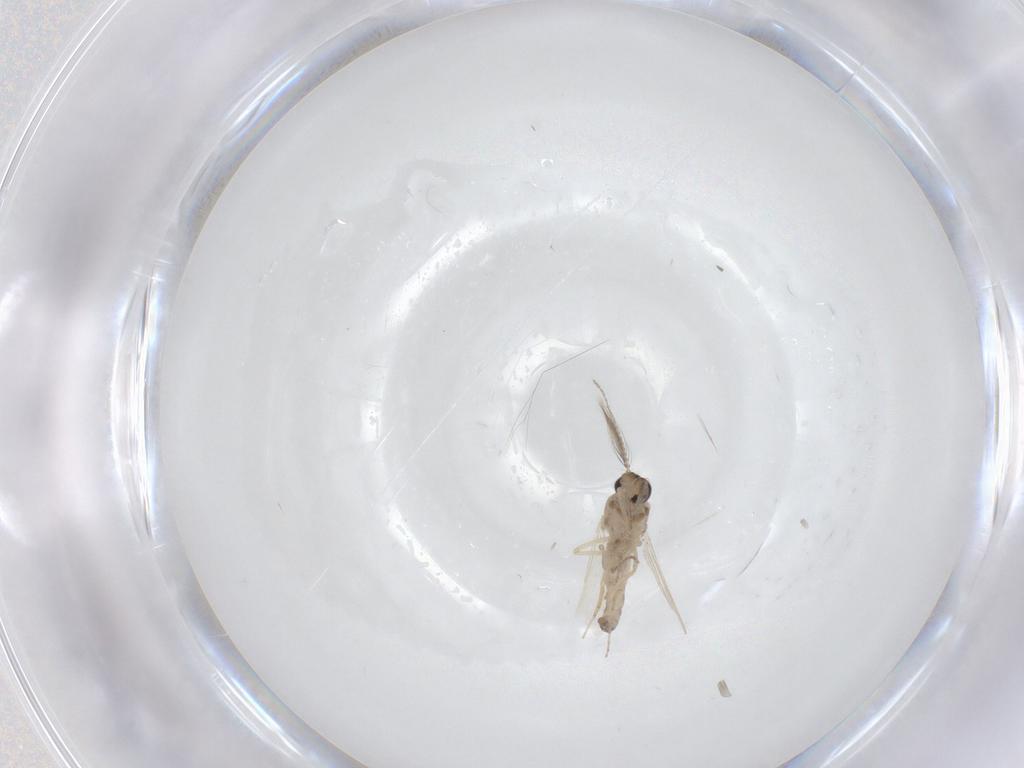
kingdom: Animalia
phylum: Arthropoda
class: Insecta
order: Diptera
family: Ceratopogonidae
